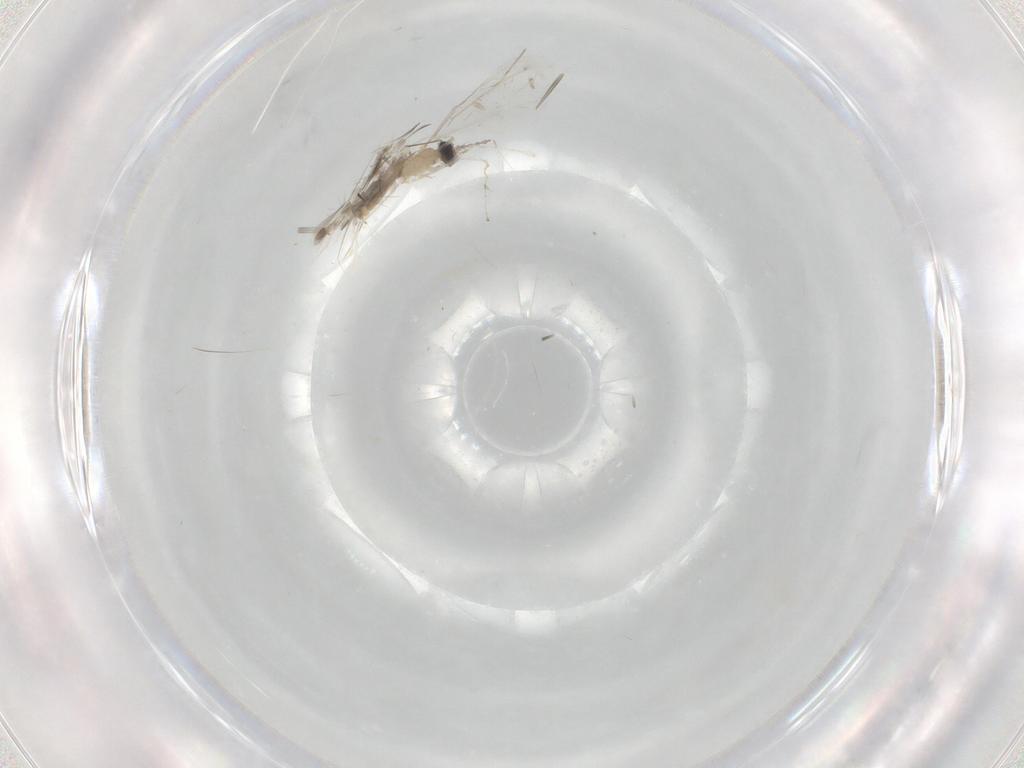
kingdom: Animalia
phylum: Arthropoda
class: Insecta
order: Diptera
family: Cecidomyiidae
